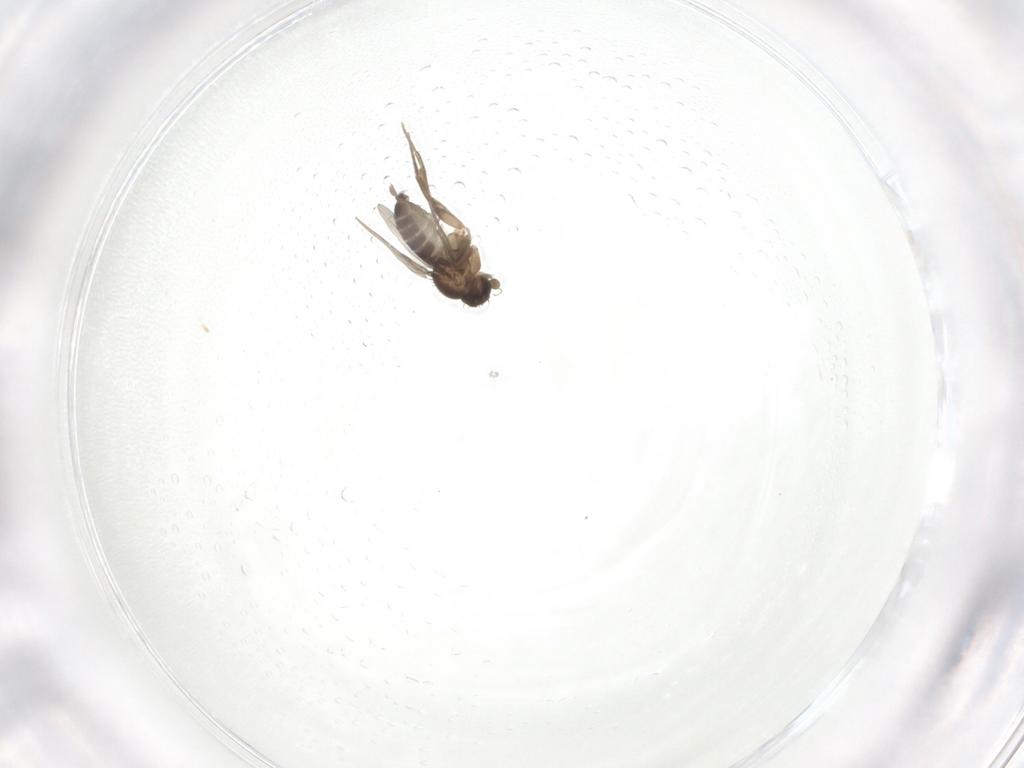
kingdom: Animalia
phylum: Arthropoda
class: Insecta
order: Diptera
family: Phoridae
